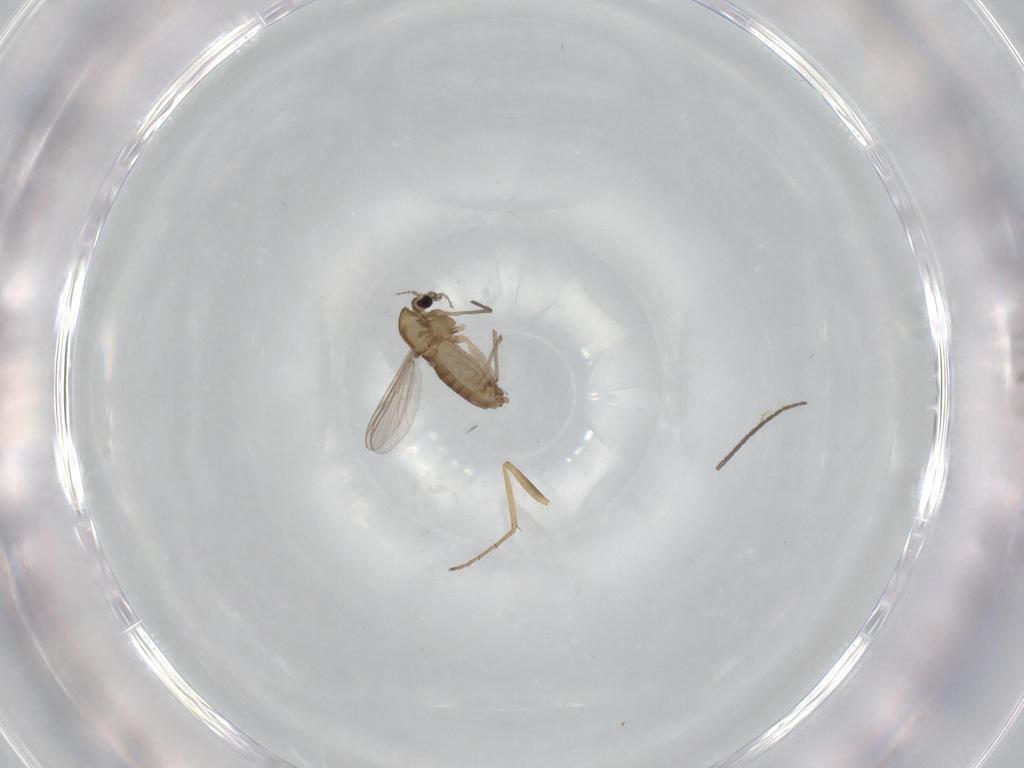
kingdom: Animalia
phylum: Arthropoda
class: Insecta
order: Diptera
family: Chironomidae
